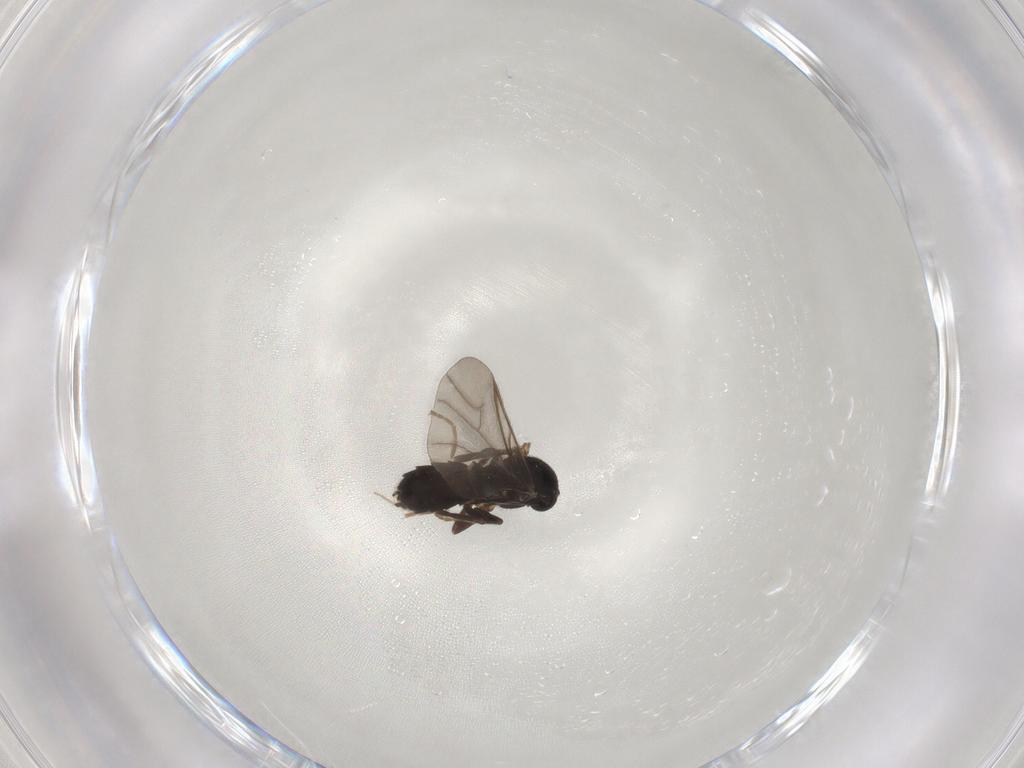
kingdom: Animalia
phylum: Arthropoda
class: Insecta
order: Diptera
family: Scatopsidae
